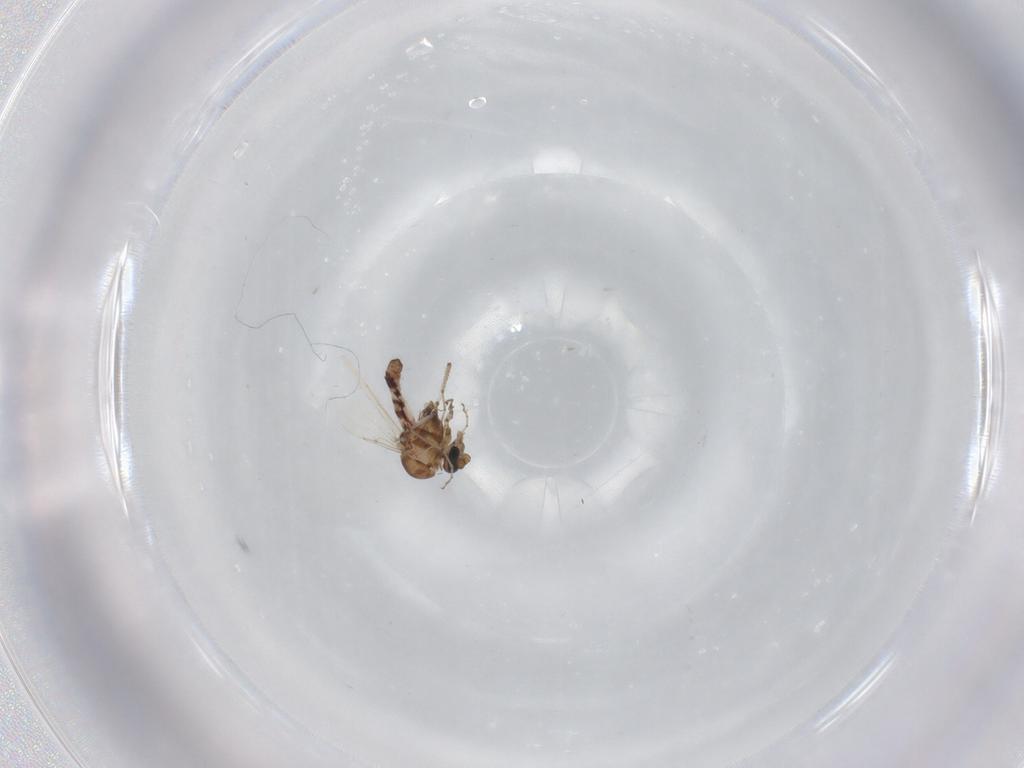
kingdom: Animalia
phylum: Arthropoda
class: Insecta
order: Diptera
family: Ceratopogonidae
